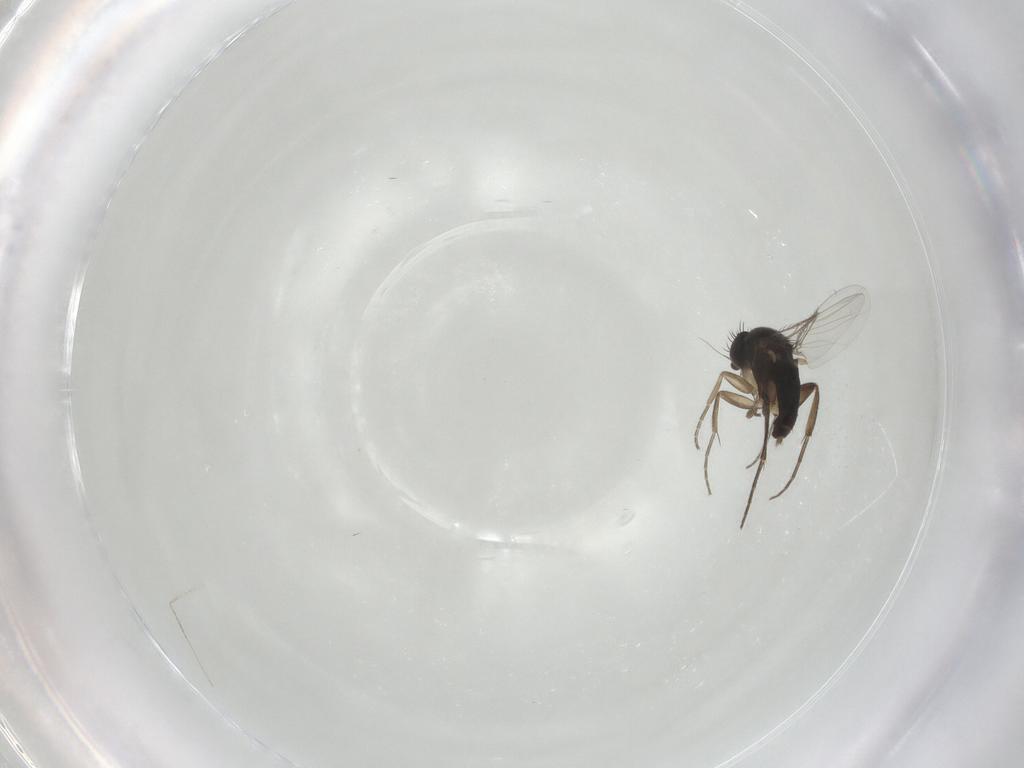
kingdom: Animalia
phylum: Arthropoda
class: Insecta
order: Diptera
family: Phoridae
